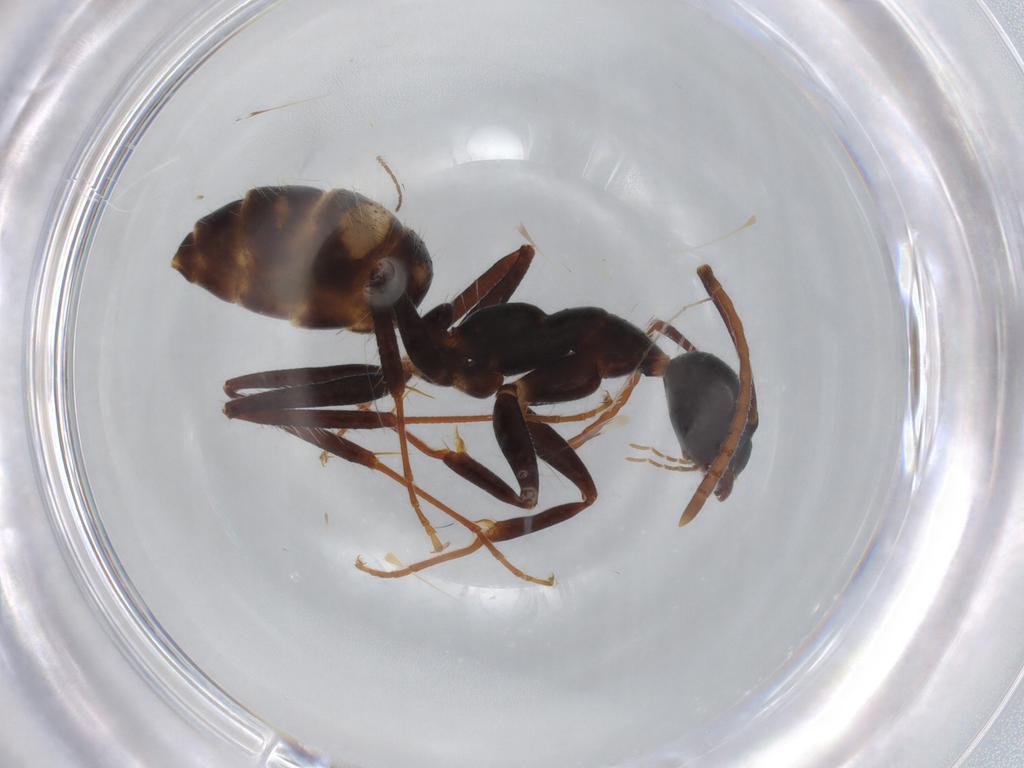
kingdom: Animalia
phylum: Arthropoda
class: Insecta
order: Hymenoptera
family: Formicidae
